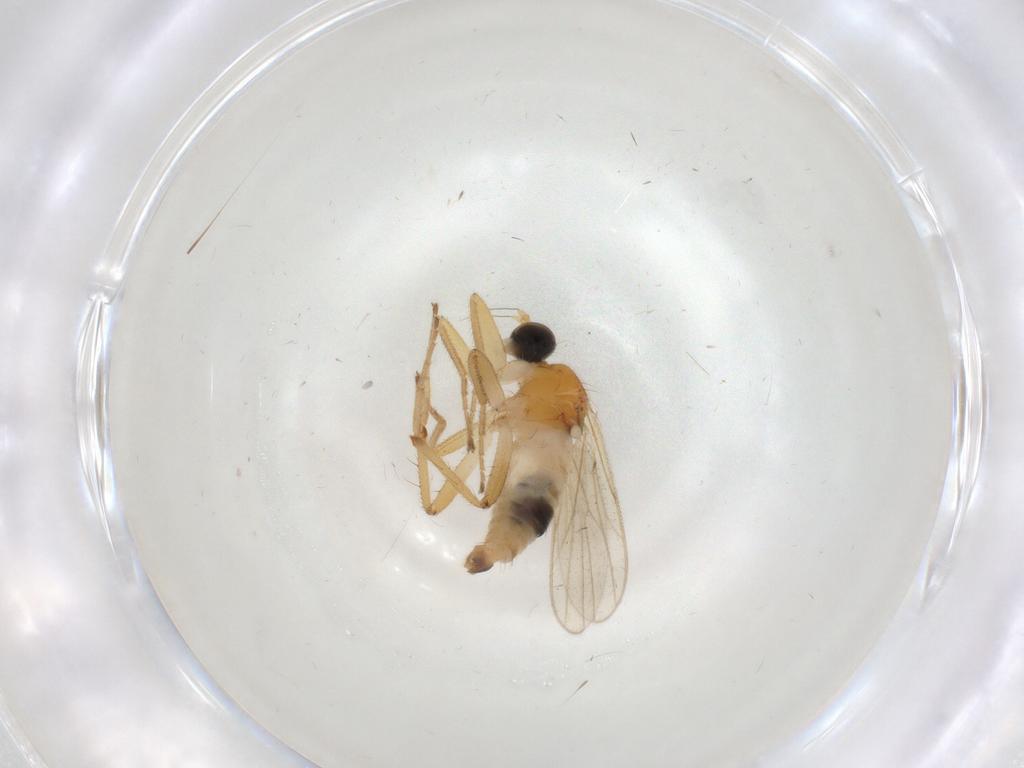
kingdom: Animalia
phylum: Arthropoda
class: Insecta
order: Diptera
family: Hybotidae
